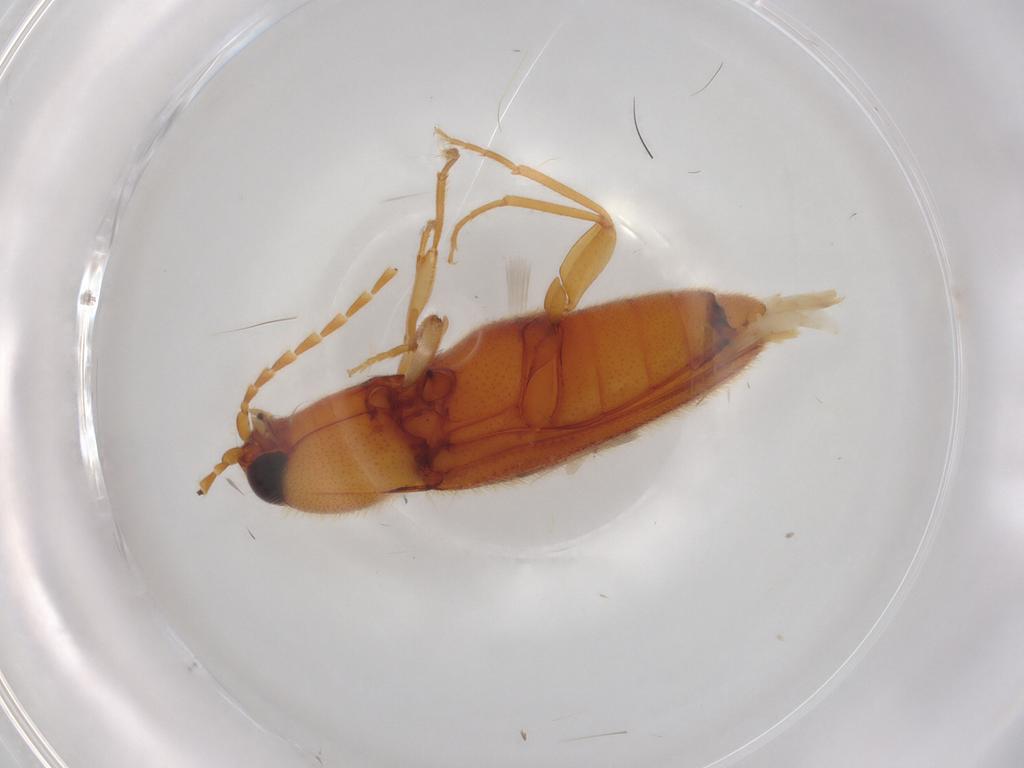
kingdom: Animalia
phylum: Arthropoda
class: Insecta
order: Coleoptera
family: Elateridae
